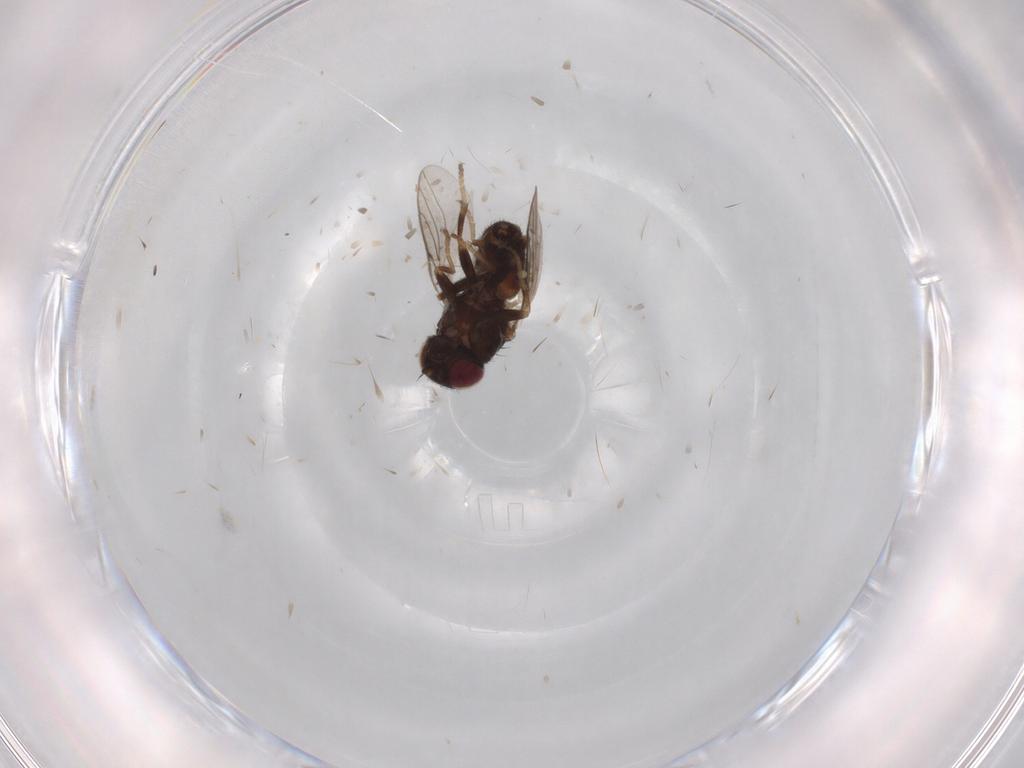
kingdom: Animalia
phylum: Arthropoda
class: Insecta
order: Diptera
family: Chloropidae
